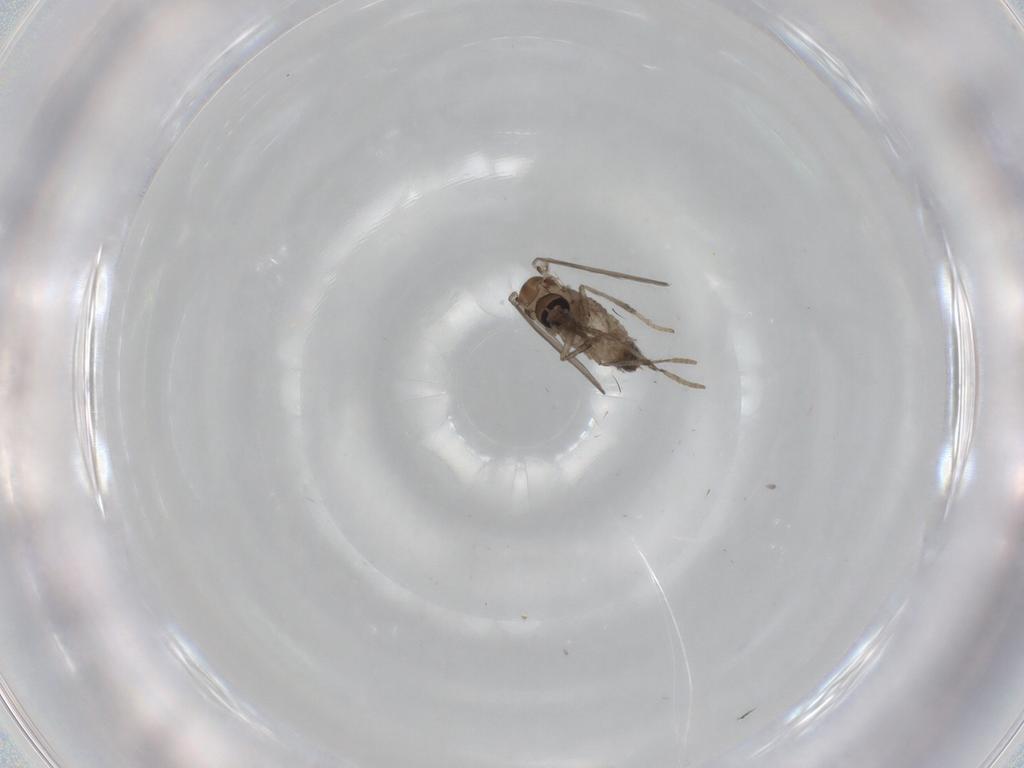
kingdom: Animalia
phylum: Arthropoda
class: Insecta
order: Diptera
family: Psychodidae
